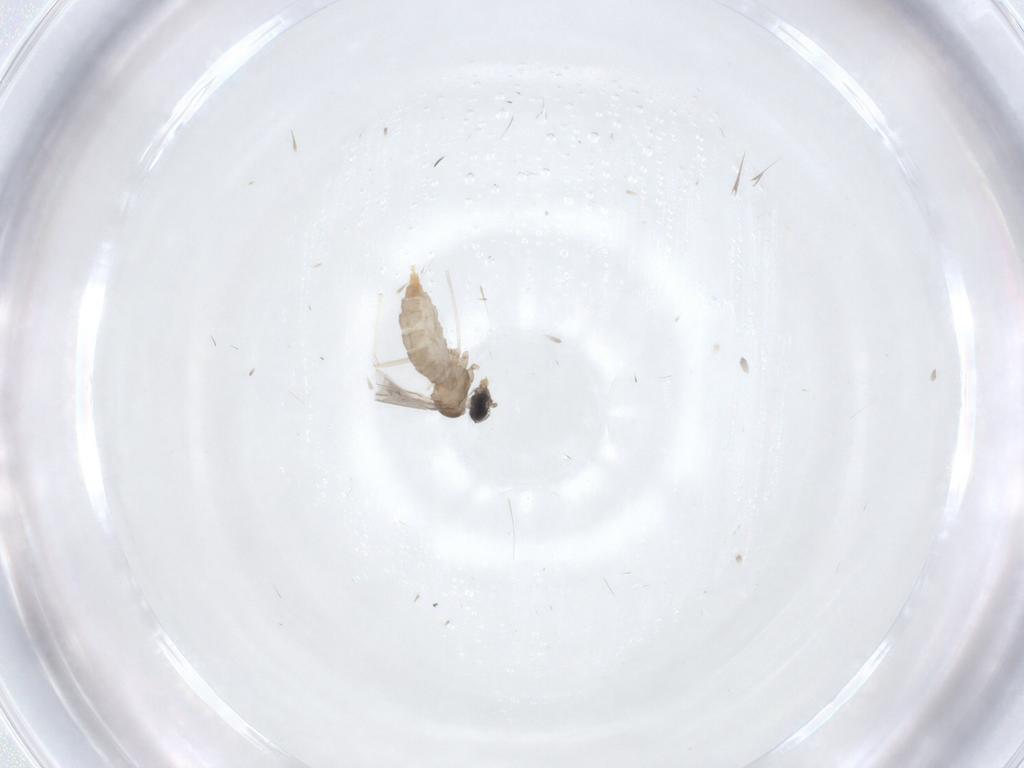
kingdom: Animalia
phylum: Arthropoda
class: Insecta
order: Diptera
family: Cecidomyiidae
